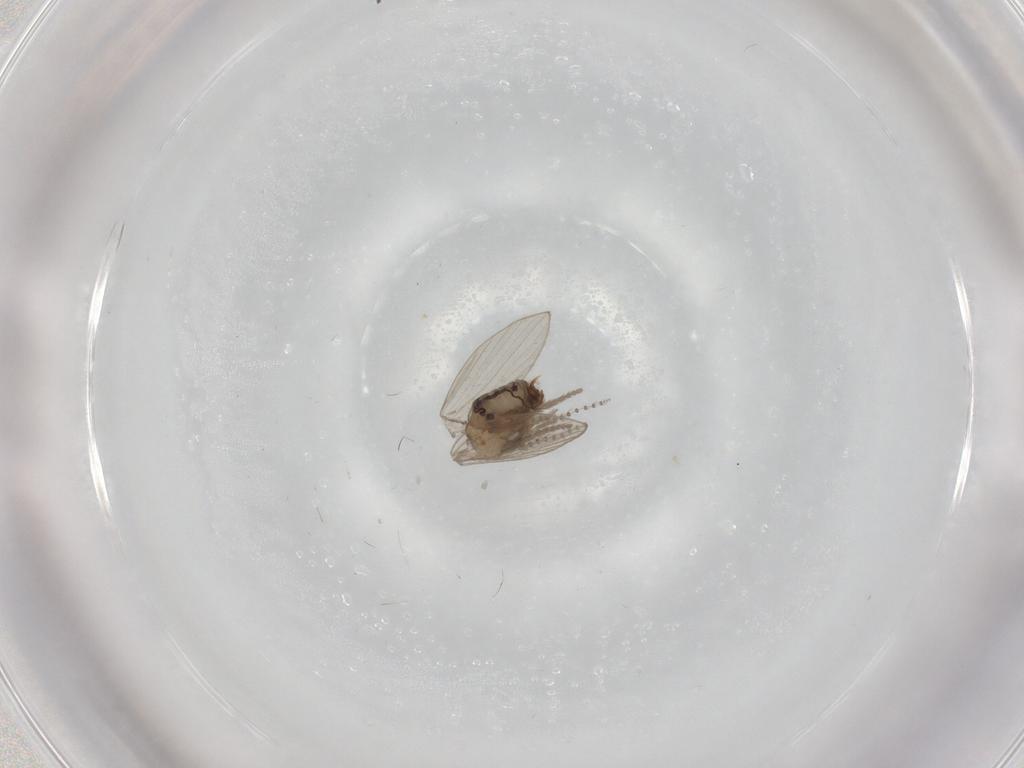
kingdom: Animalia
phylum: Arthropoda
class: Insecta
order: Diptera
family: Psychodidae
